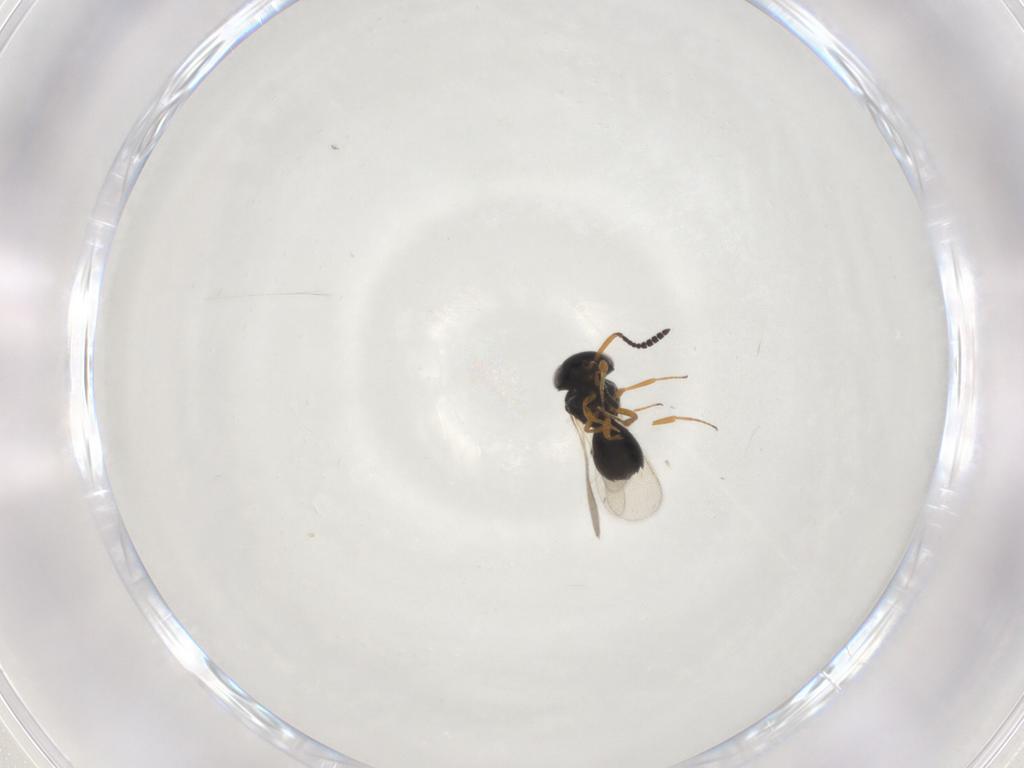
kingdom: Animalia
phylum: Arthropoda
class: Insecta
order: Hymenoptera
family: Scelionidae
